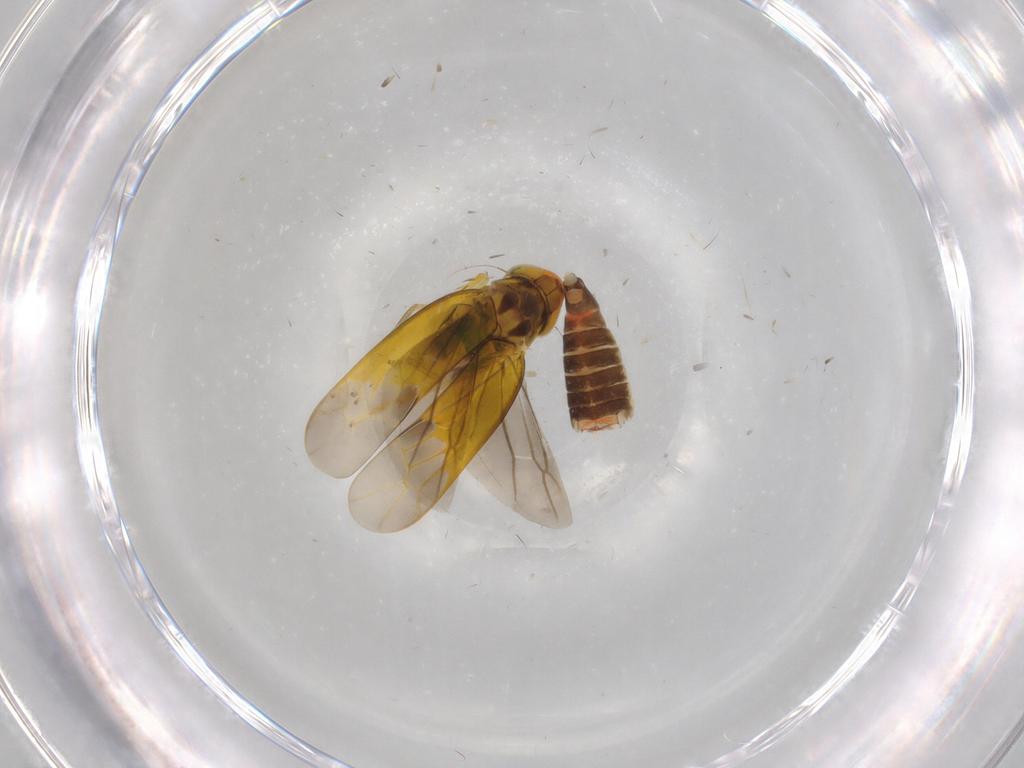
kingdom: Animalia
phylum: Arthropoda
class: Insecta
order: Hemiptera
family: Cicadellidae
